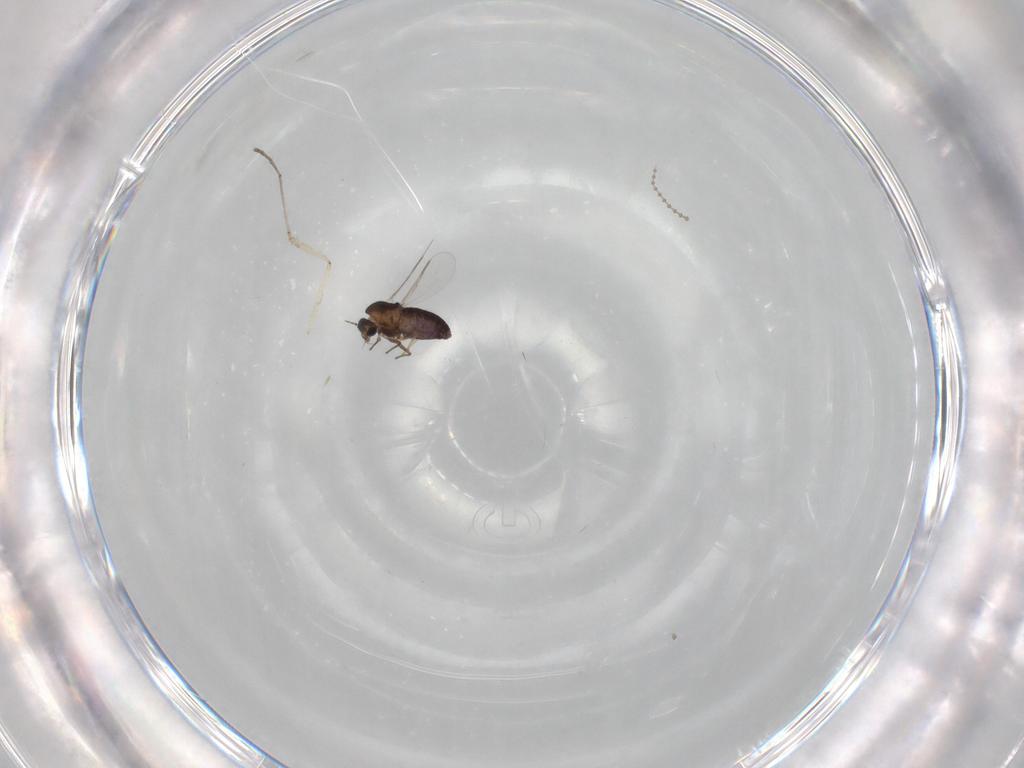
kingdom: Animalia
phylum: Arthropoda
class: Insecta
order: Diptera
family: Chironomidae
